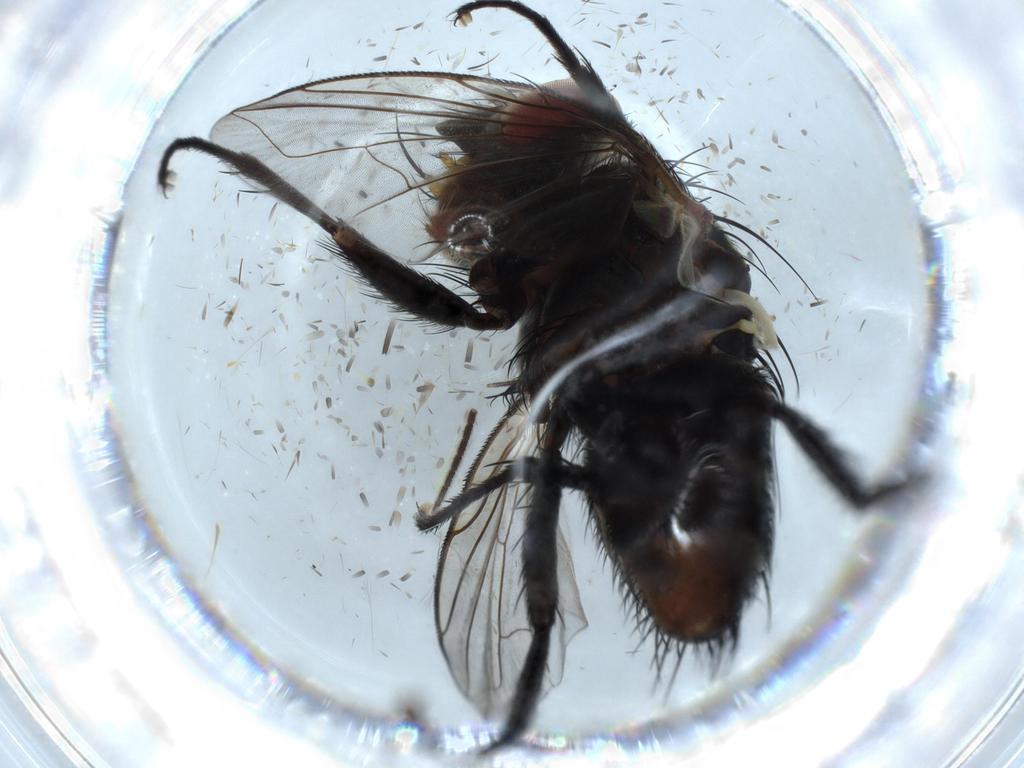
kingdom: Animalia
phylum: Arthropoda
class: Insecta
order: Diptera
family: Sciaridae
